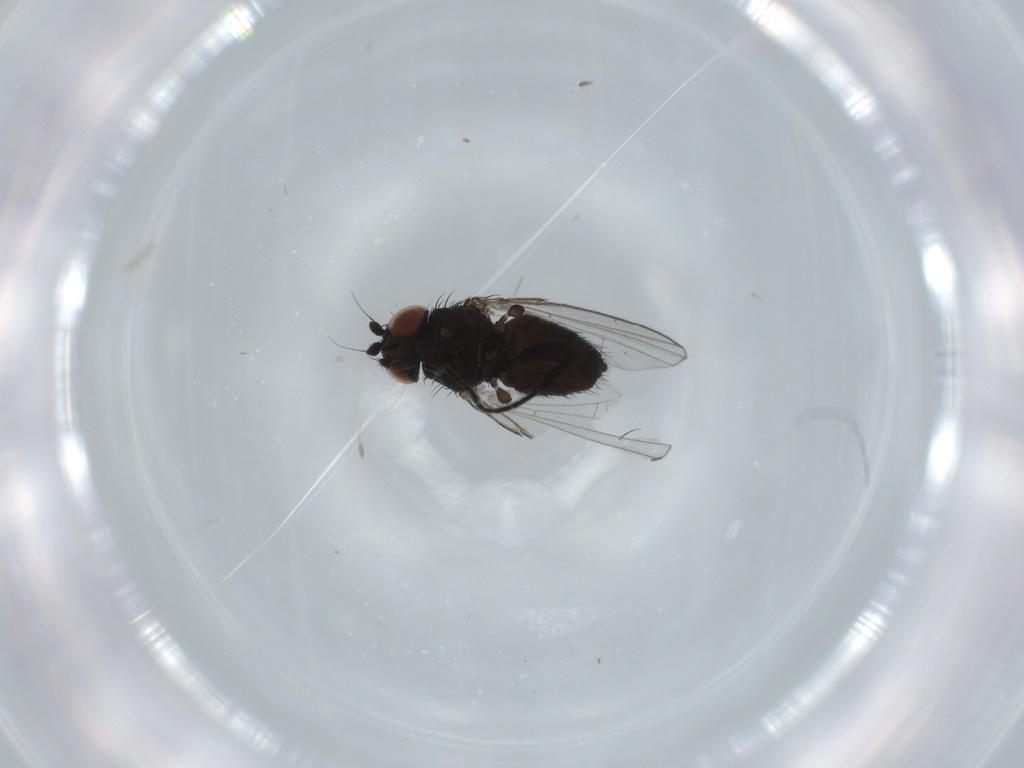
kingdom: Animalia
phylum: Arthropoda
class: Insecta
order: Diptera
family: Milichiidae
